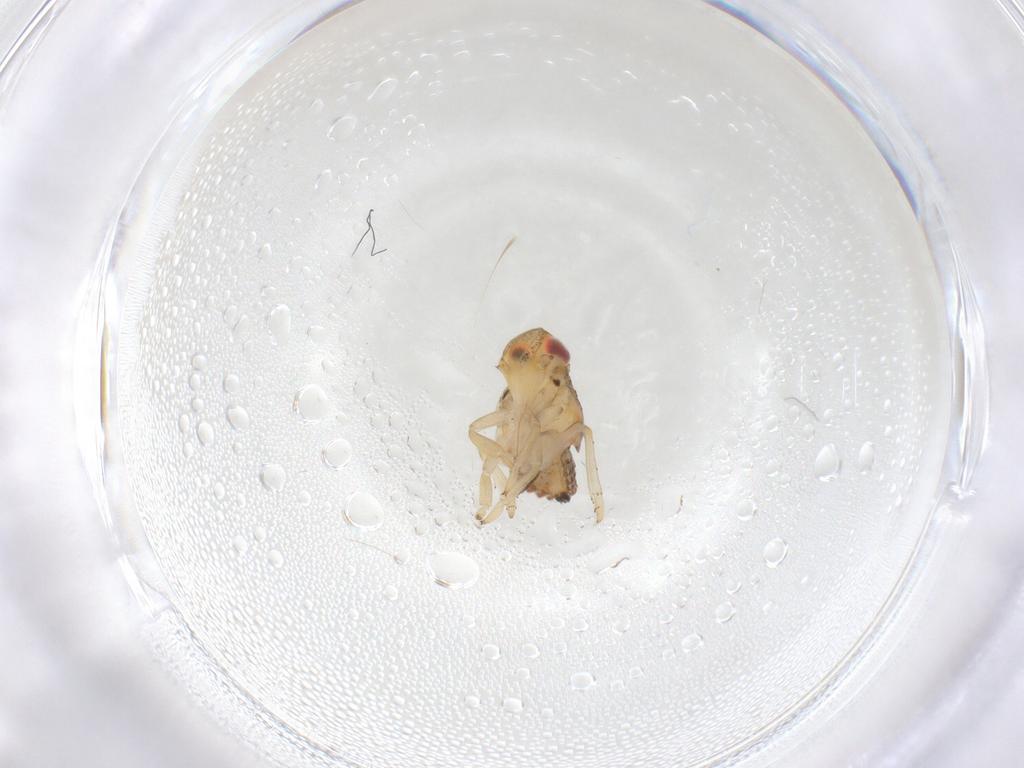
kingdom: Animalia
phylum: Arthropoda
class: Insecta
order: Hemiptera
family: Issidae
